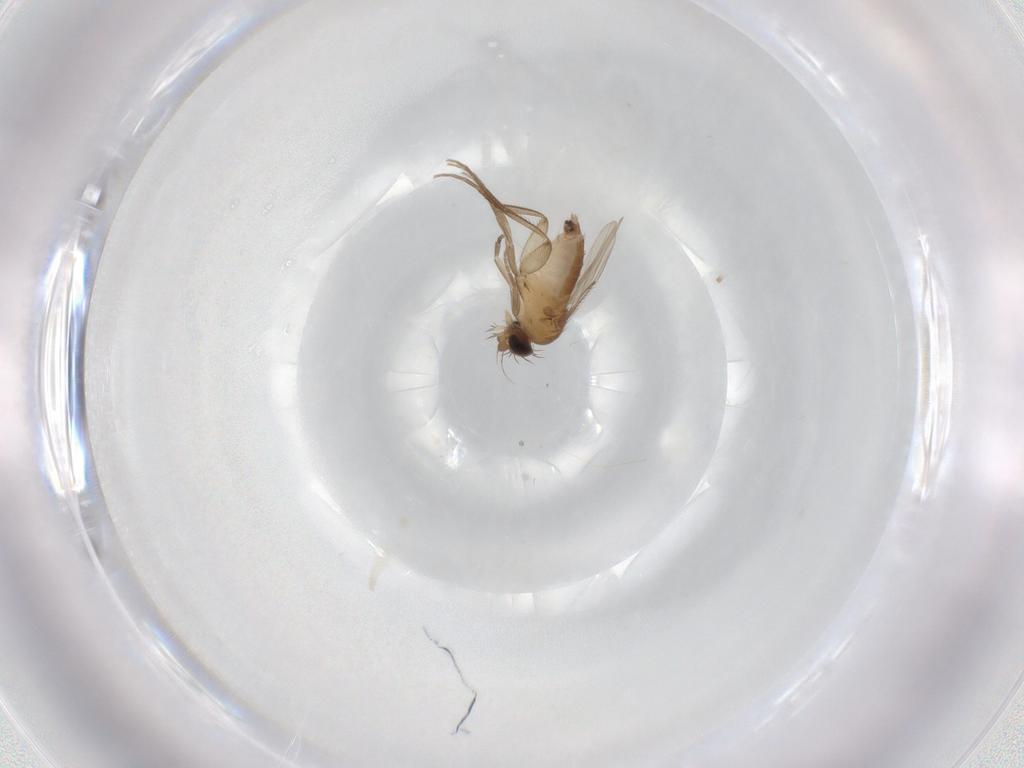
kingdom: Animalia
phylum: Arthropoda
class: Insecta
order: Diptera
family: Phoridae
